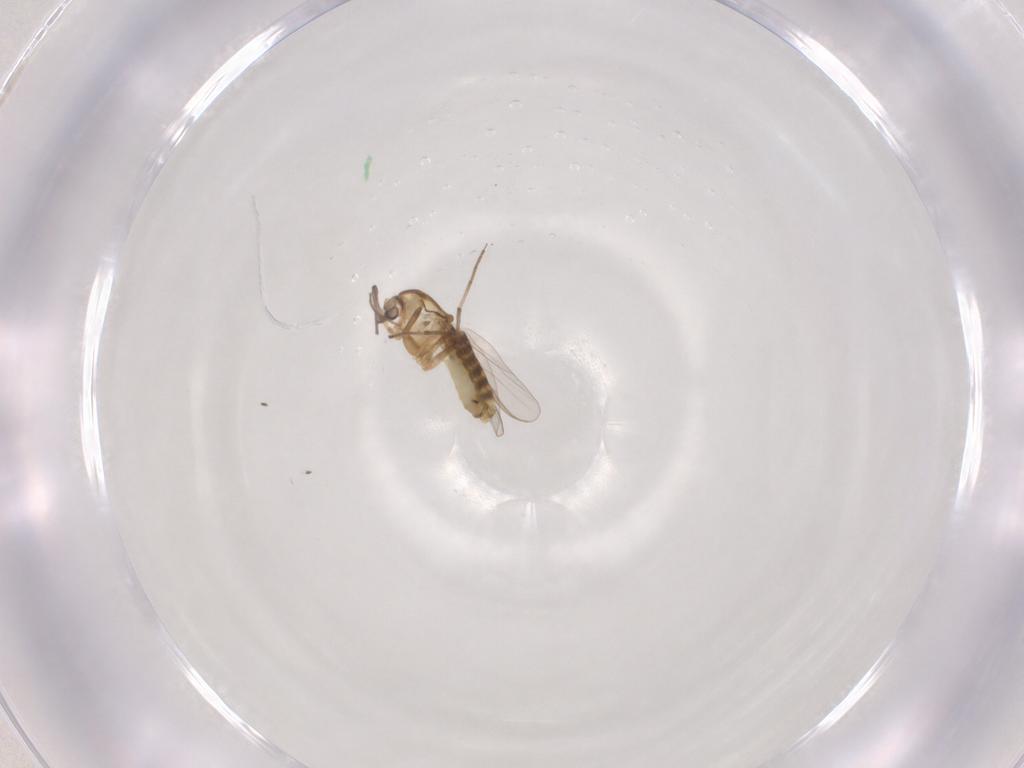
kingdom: Animalia
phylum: Arthropoda
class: Insecta
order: Diptera
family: Chironomidae
